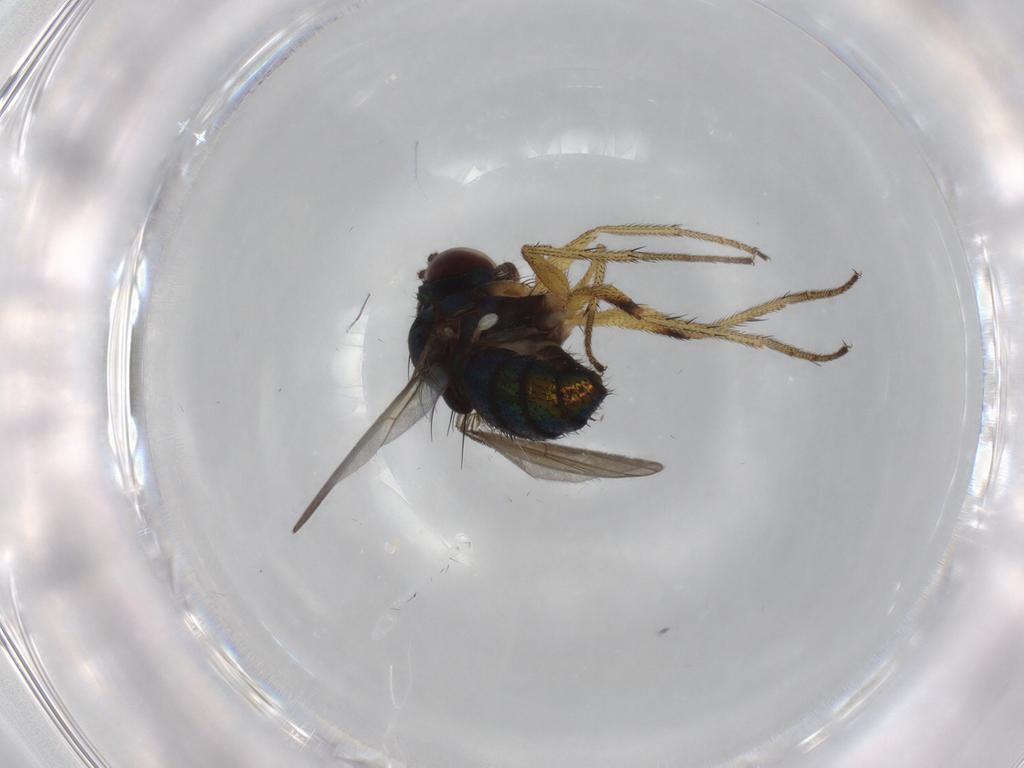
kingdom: Animalia
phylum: Arthropoda
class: Insecta
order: Diptera
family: Dolichopodidae
